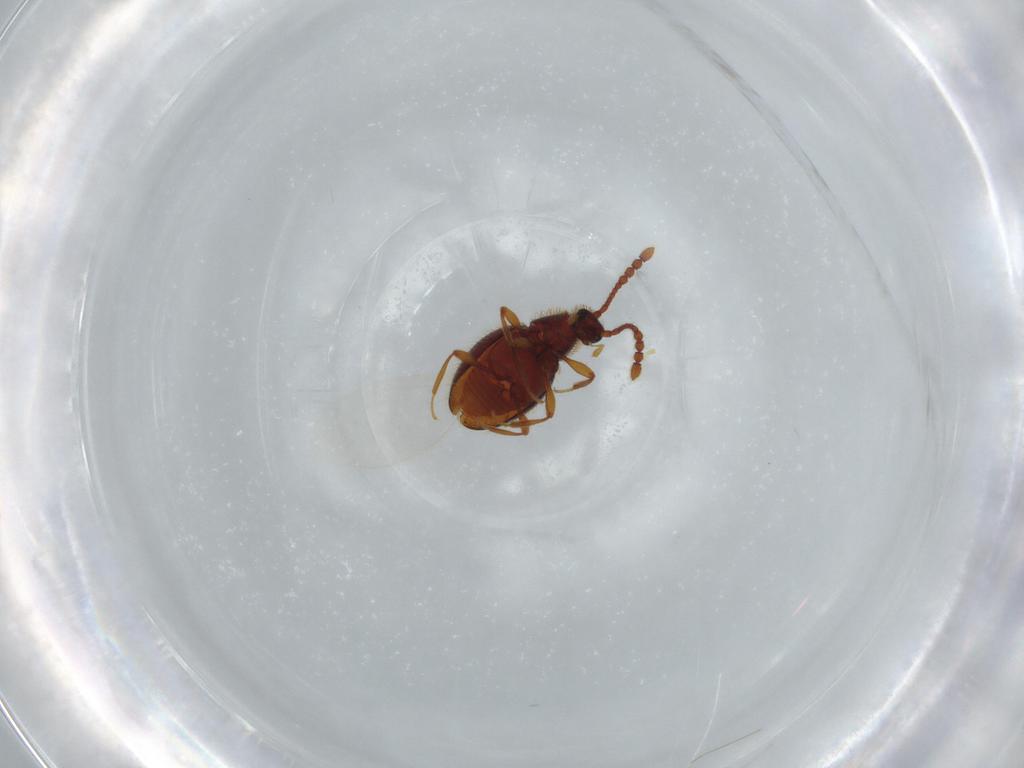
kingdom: Animalia
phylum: Arthropoda
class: Insecta
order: Coleoptera
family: Staphylinidae
